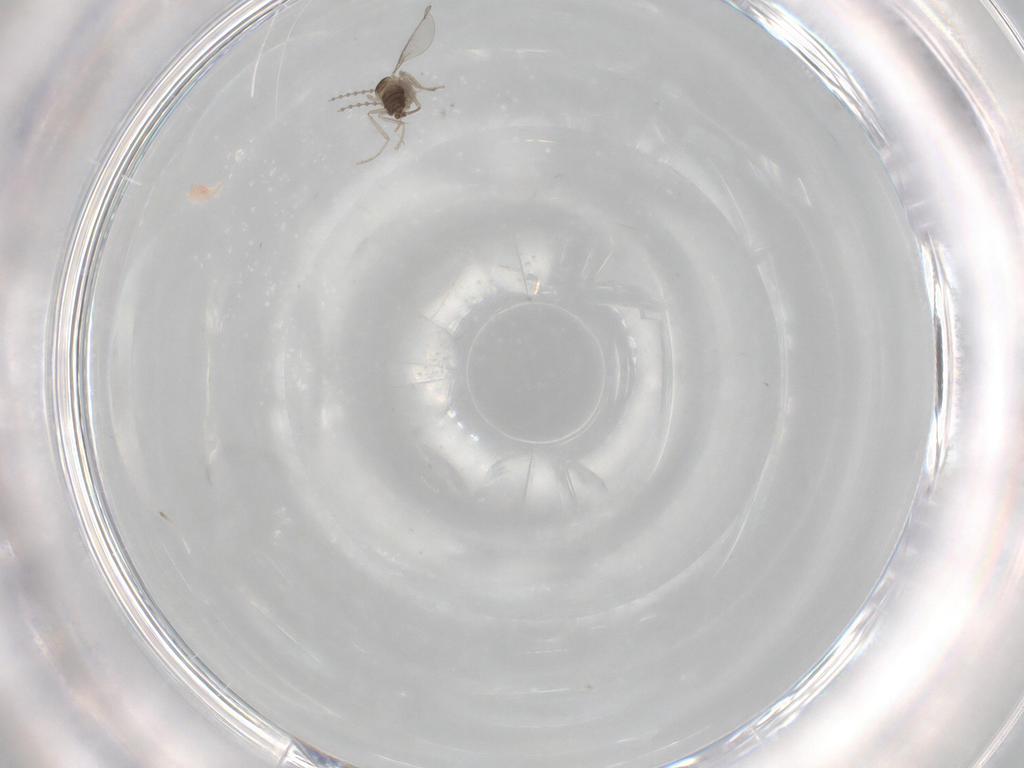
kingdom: Animalia
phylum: Arthropoda
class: Insecta
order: Diptera
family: Cecidomyiidae
